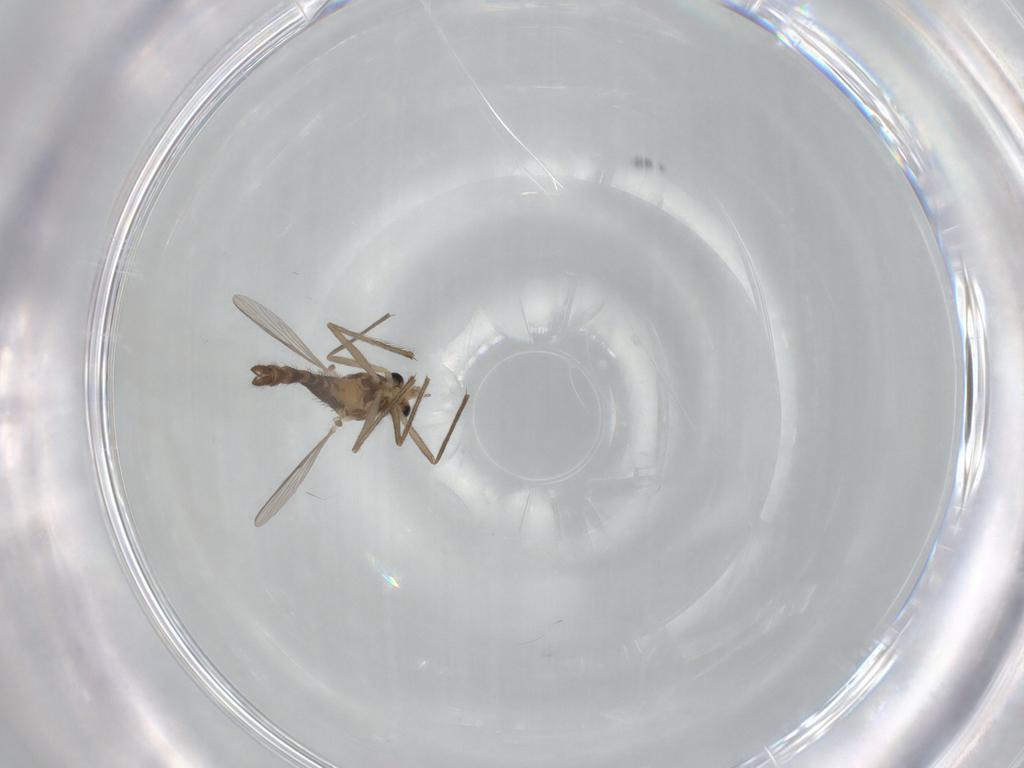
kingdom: Animalia
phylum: Arthropoda
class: Insecta
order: Diptera
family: Chironomidae
